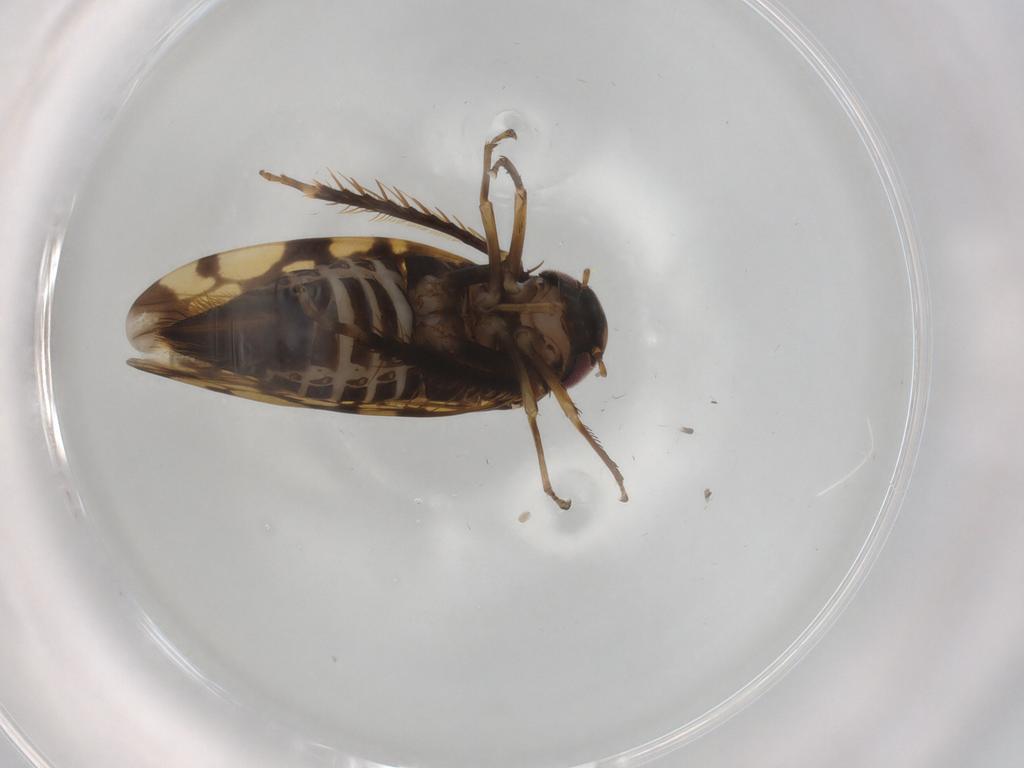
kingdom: Animalia
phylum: Arthropoda
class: Insecta
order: Hemiptera
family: Cicadellidae
